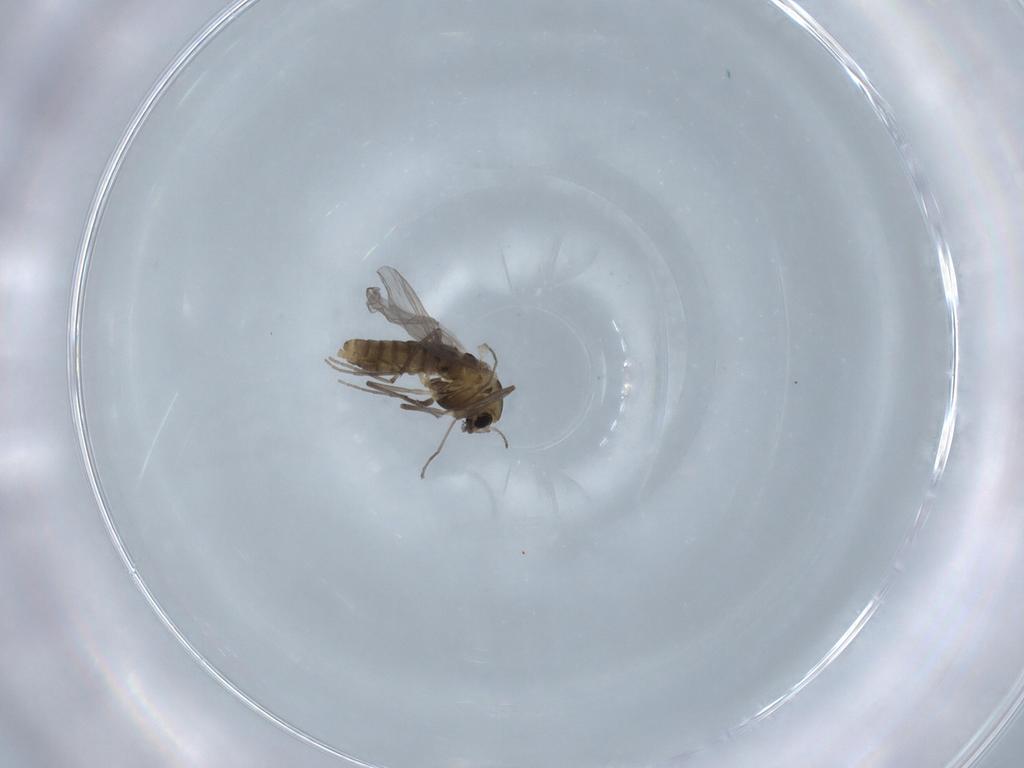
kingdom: Animalia
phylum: Arthropoda
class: Insecta
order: Diptera
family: Chironomidae
